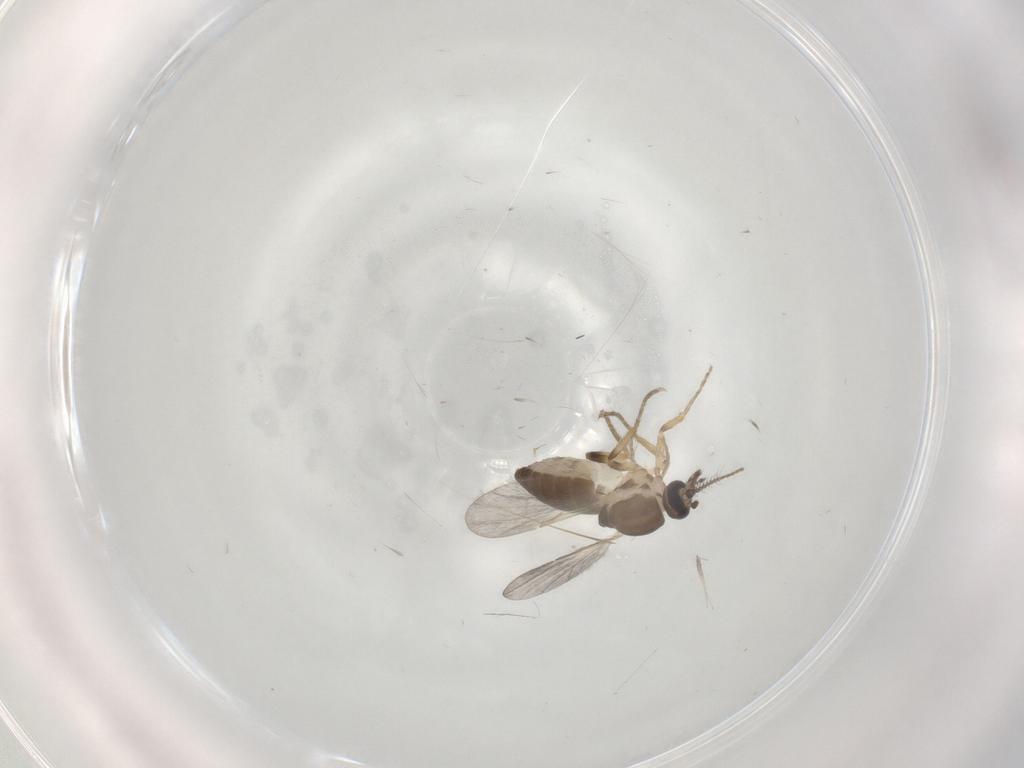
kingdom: Animalia
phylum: Arthropoda
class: Insecta
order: Diptera
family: Ceratopogonidae
